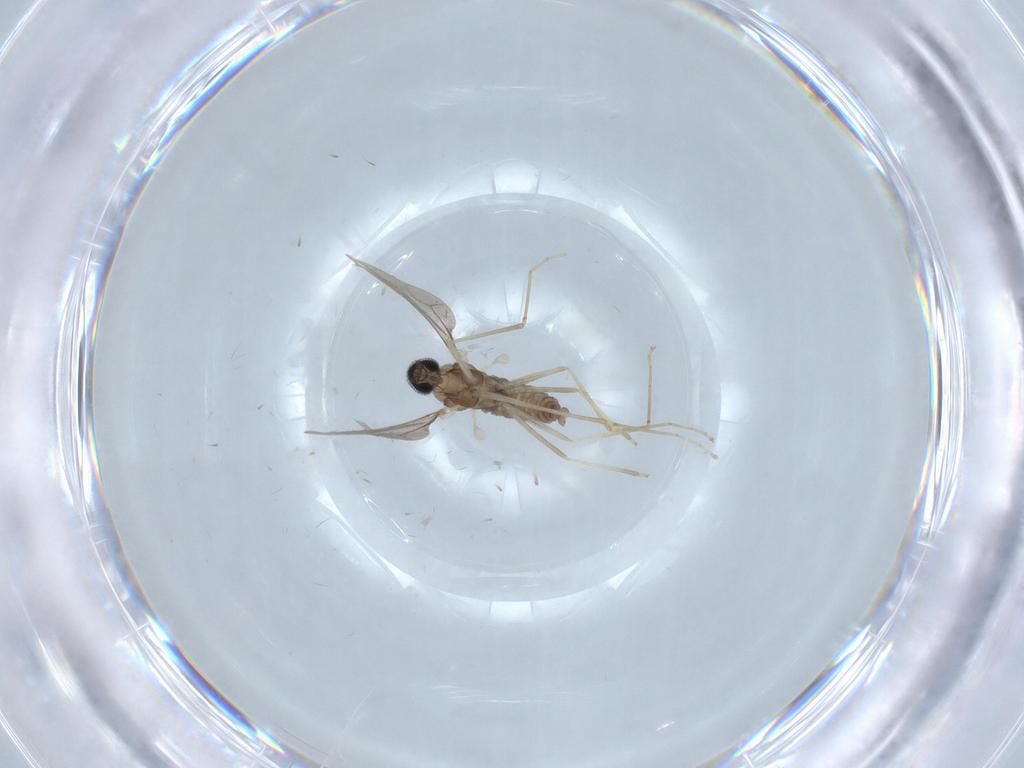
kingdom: Animalia
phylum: Arthropoda
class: Insecta
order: Diptera
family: Cecidomyiidae
